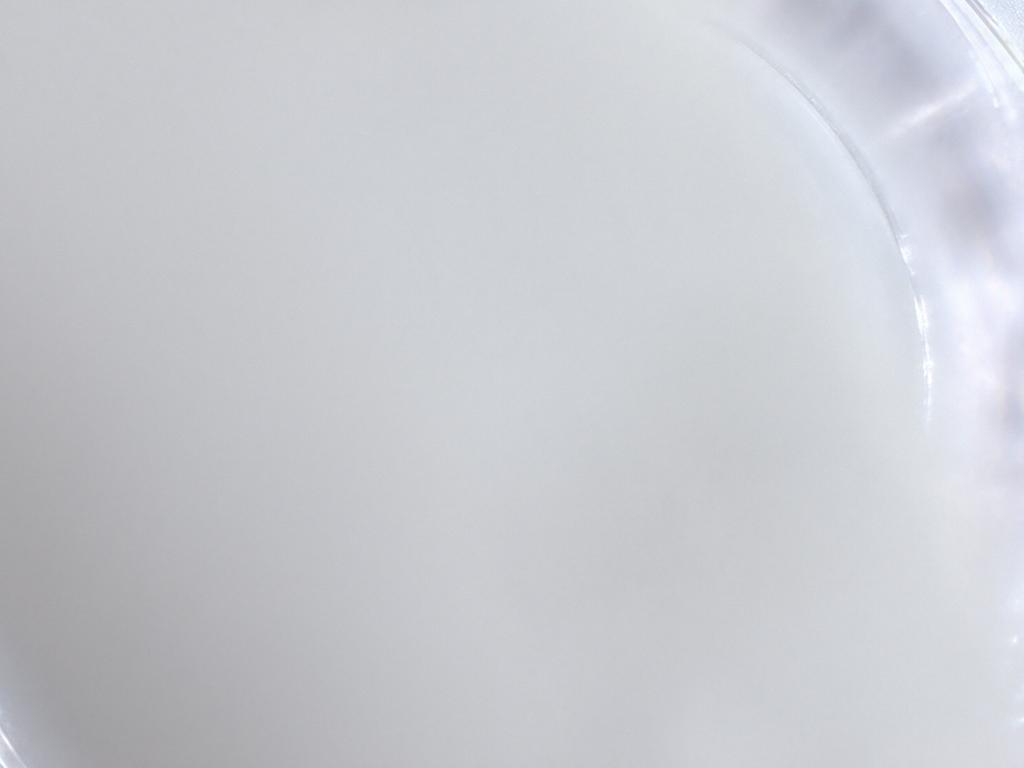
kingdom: Animalia
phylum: Arthropoda
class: Insecta
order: Diptera
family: Ceratopogonidae
